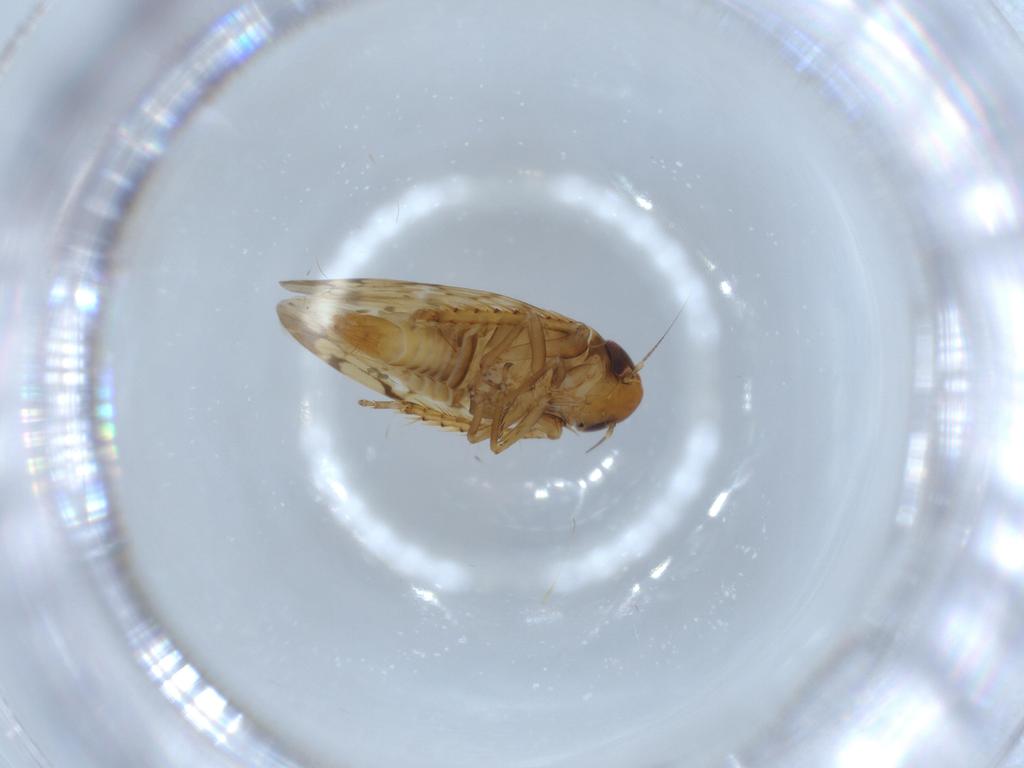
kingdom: Animalia
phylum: Arthropoda
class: Insecta
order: Hemiptera
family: Cicadellidae
